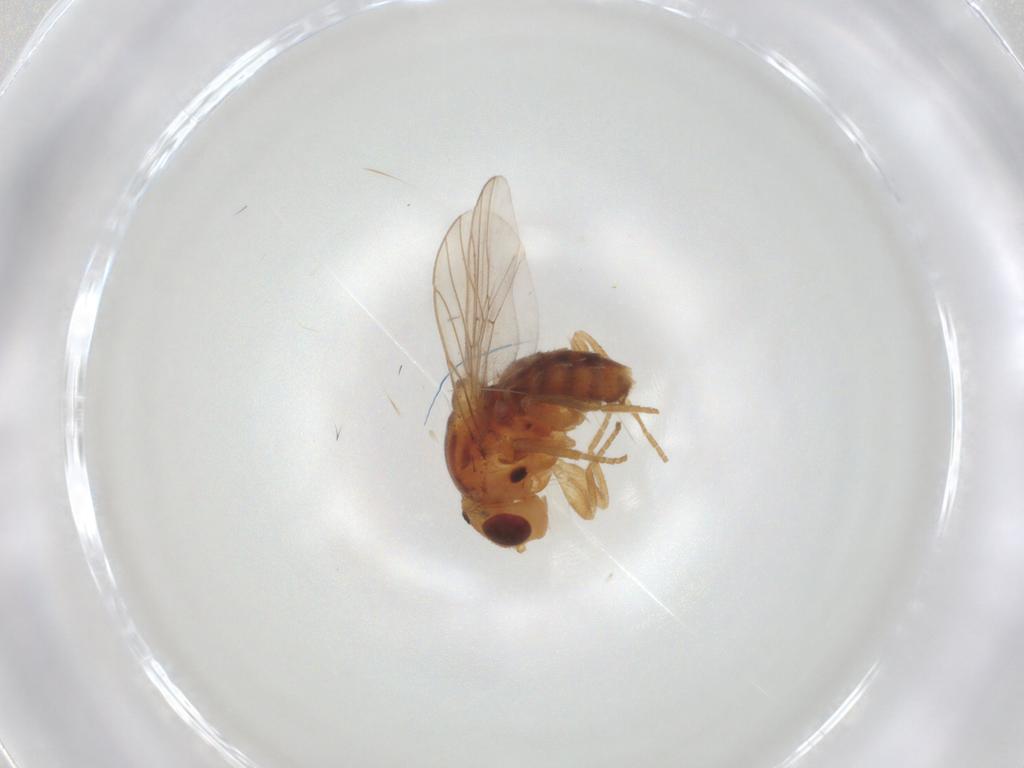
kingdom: Animalia
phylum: Arthropoda
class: Insecta
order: Diptera
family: Chloropidae
